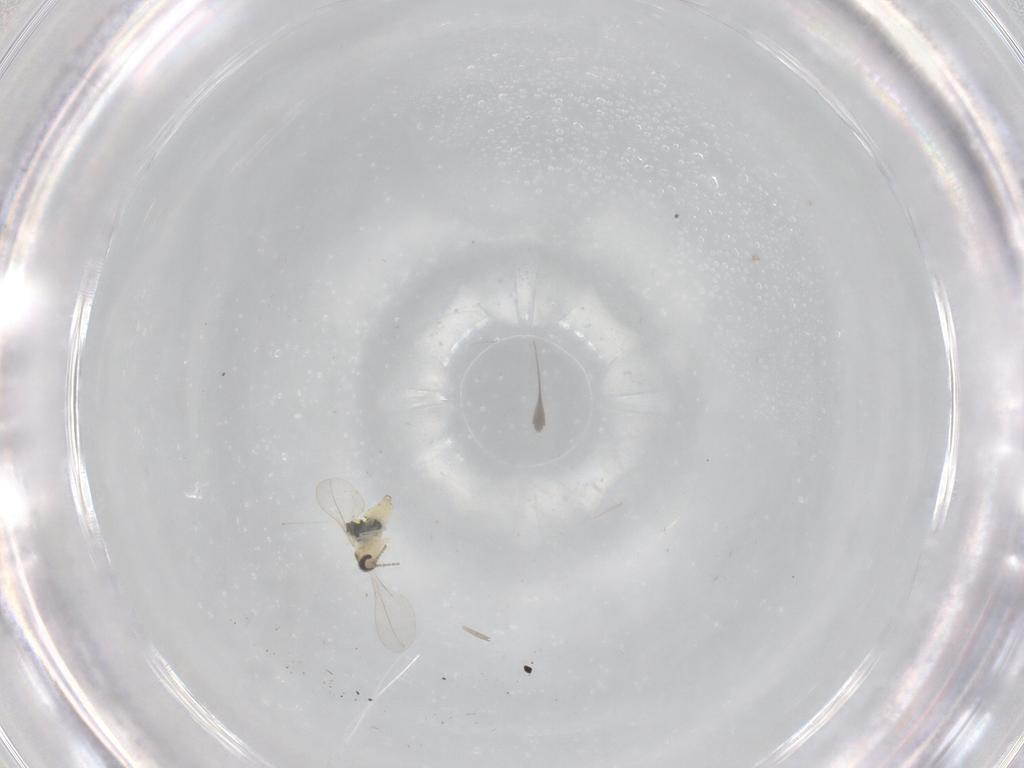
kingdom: Animalia
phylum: Arthropoda
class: Insecta
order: Diptera
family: Cecidomyiidae
